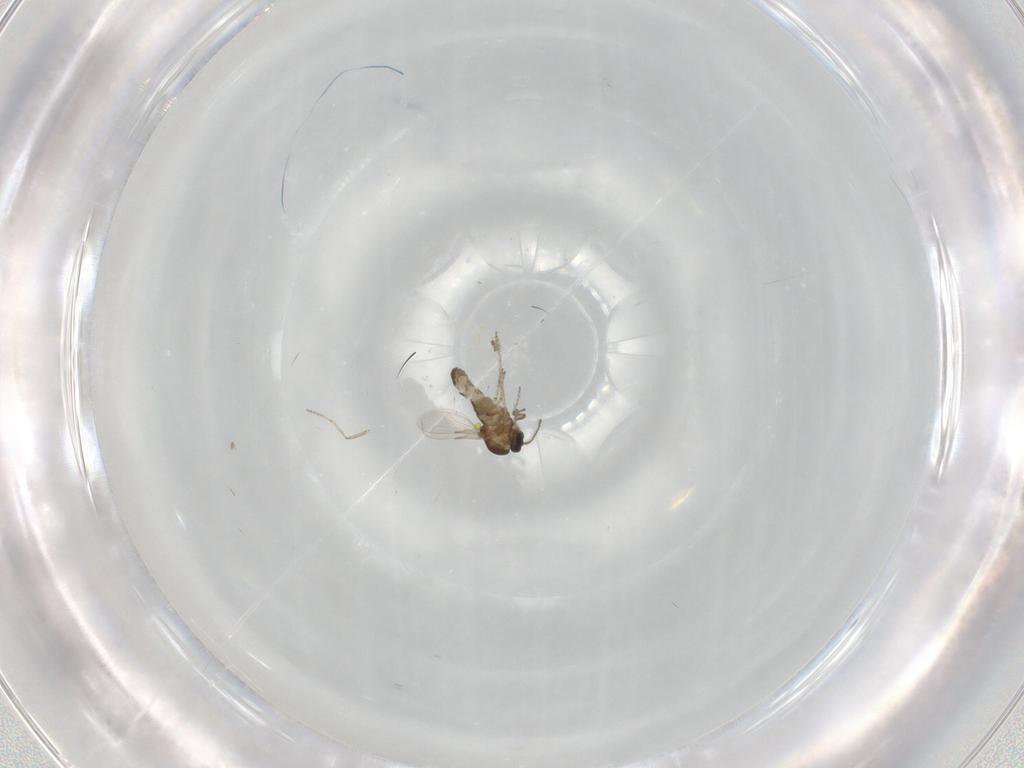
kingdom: Animalia
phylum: Arthropoda
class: Insecta
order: Diptera
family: Ceratopogonidae
